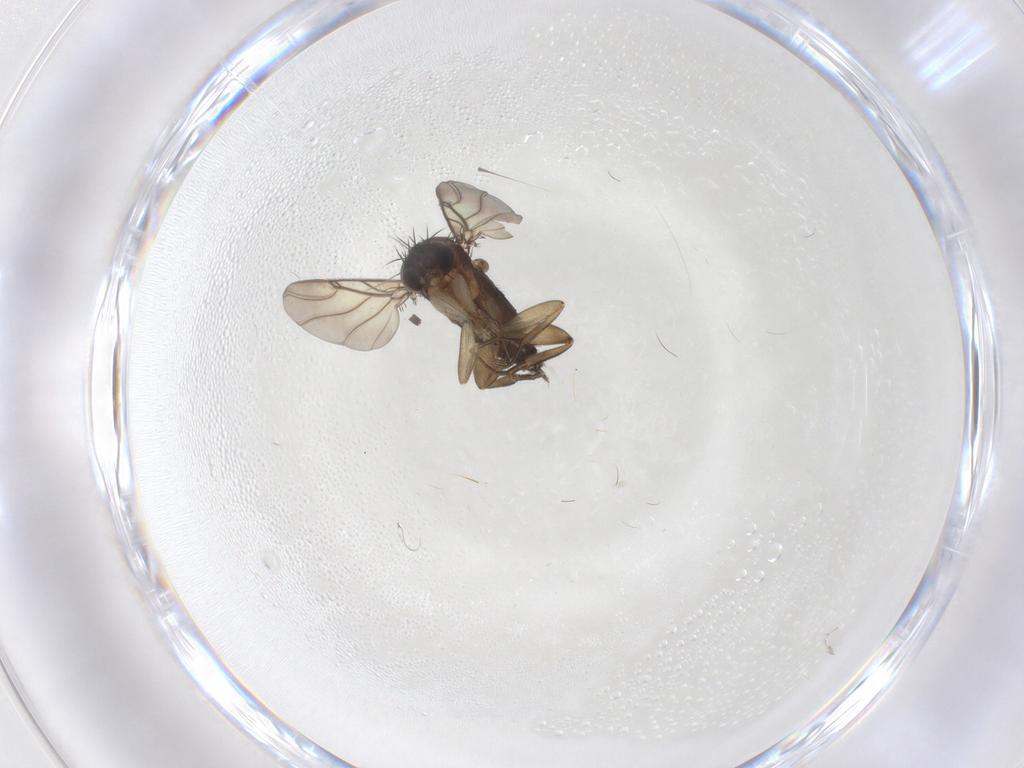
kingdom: Animalia
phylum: Arthropoda
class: Insecta
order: Diptera
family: Phoridae
